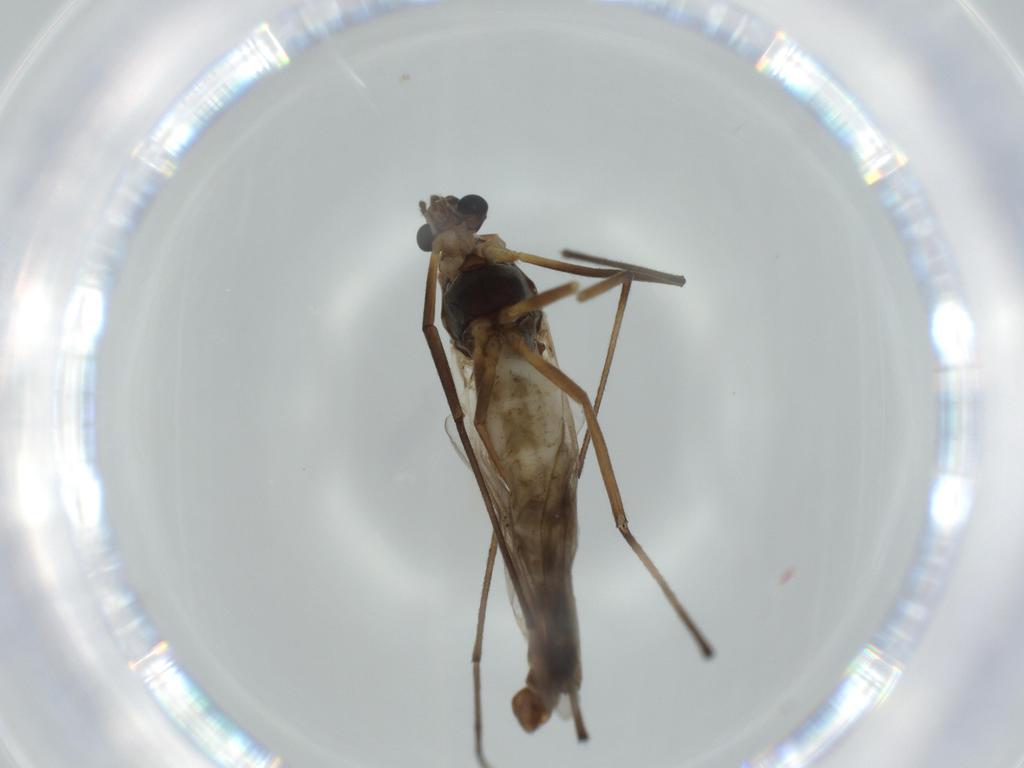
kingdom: Animalia
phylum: Arthropoda
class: Insecta
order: Diptera
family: Chironomidae
